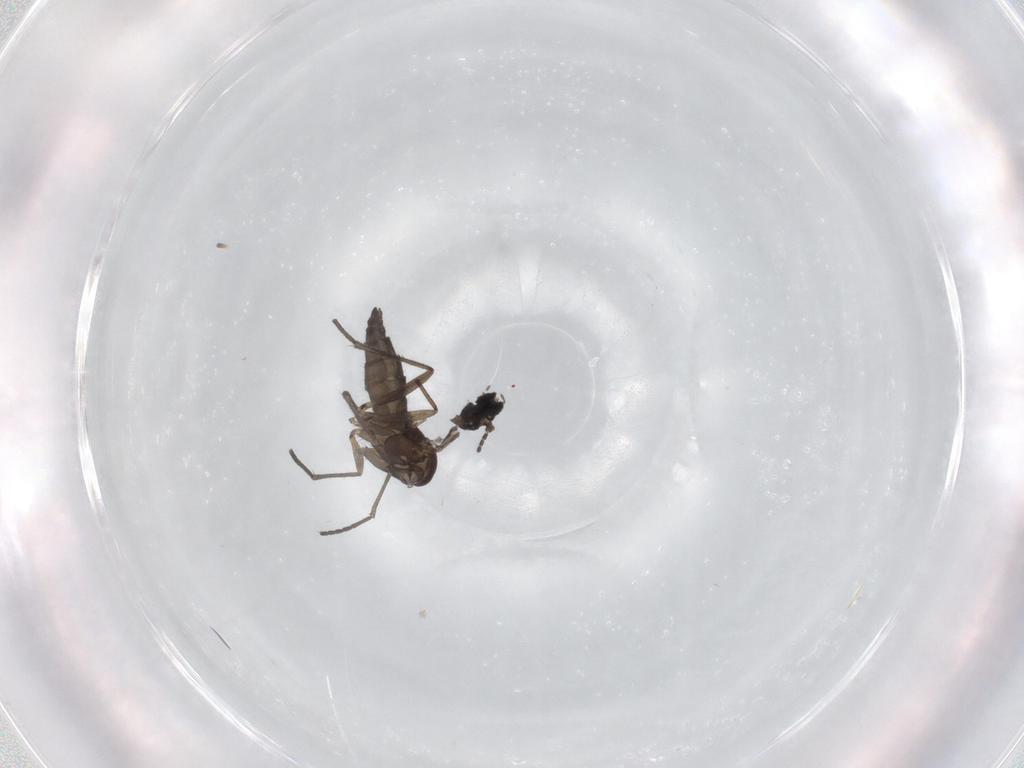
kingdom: Animalia
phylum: Arthropoda
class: Insecta
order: Diptera
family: Sciaridae
